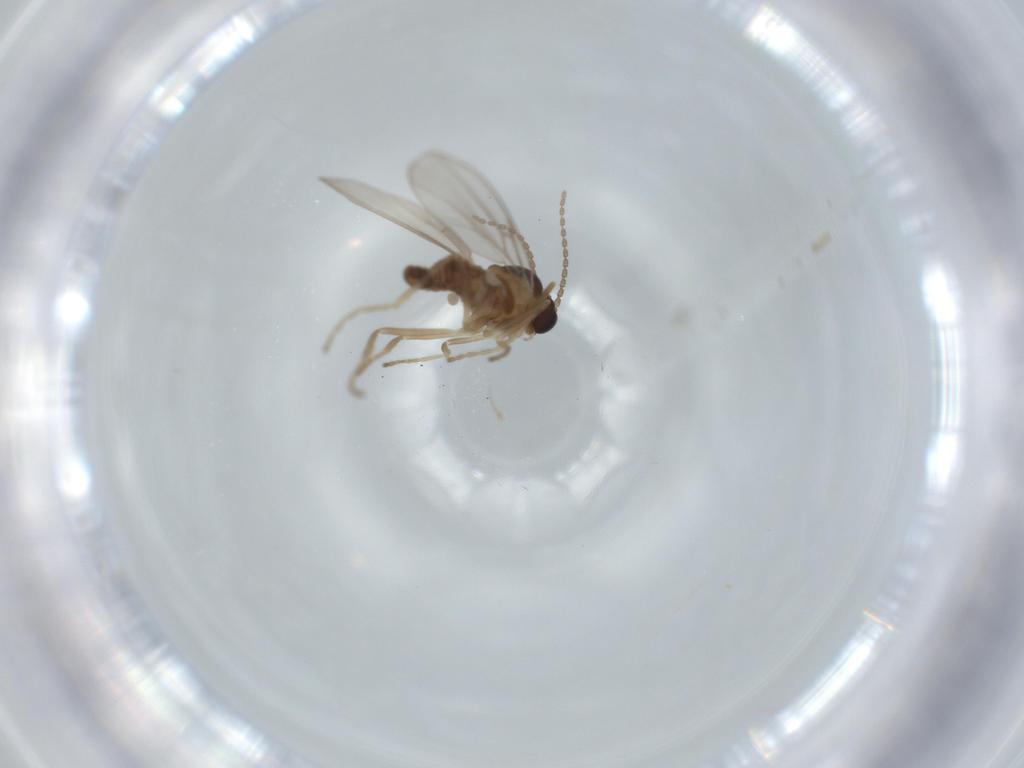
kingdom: Animalia
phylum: Arthropoda
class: Insecta
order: Diptera
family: Cecidomyiidae
